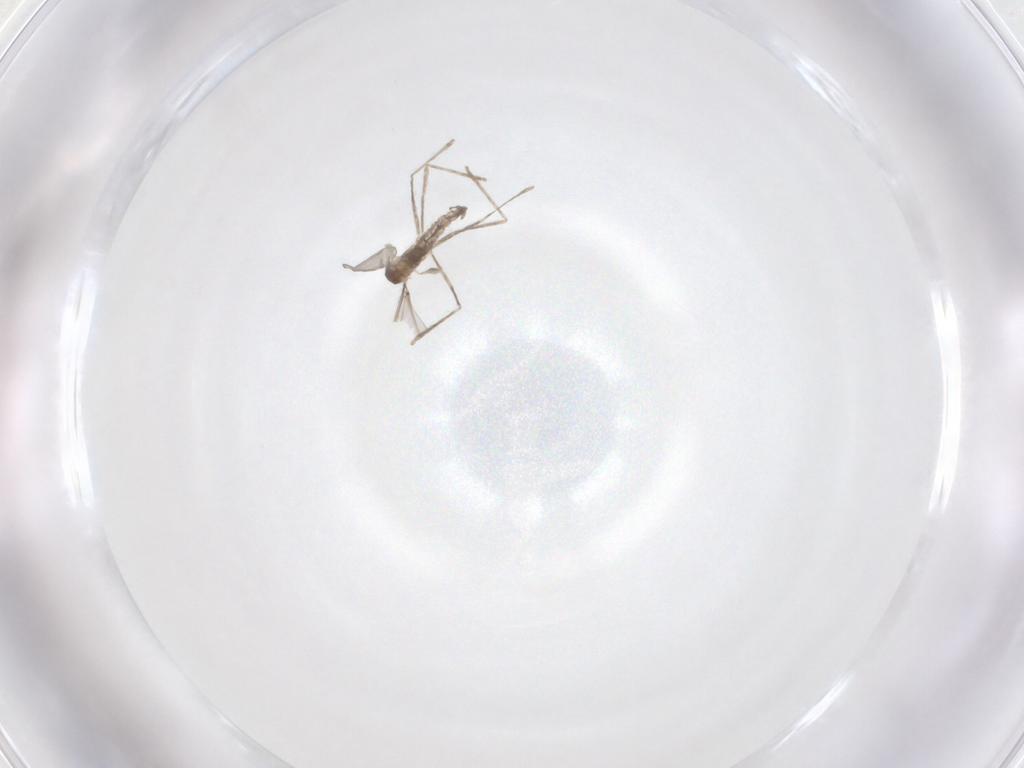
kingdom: Animalia
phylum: Arthropoda
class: Insecta
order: Diptera
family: Cecidomyiidae
